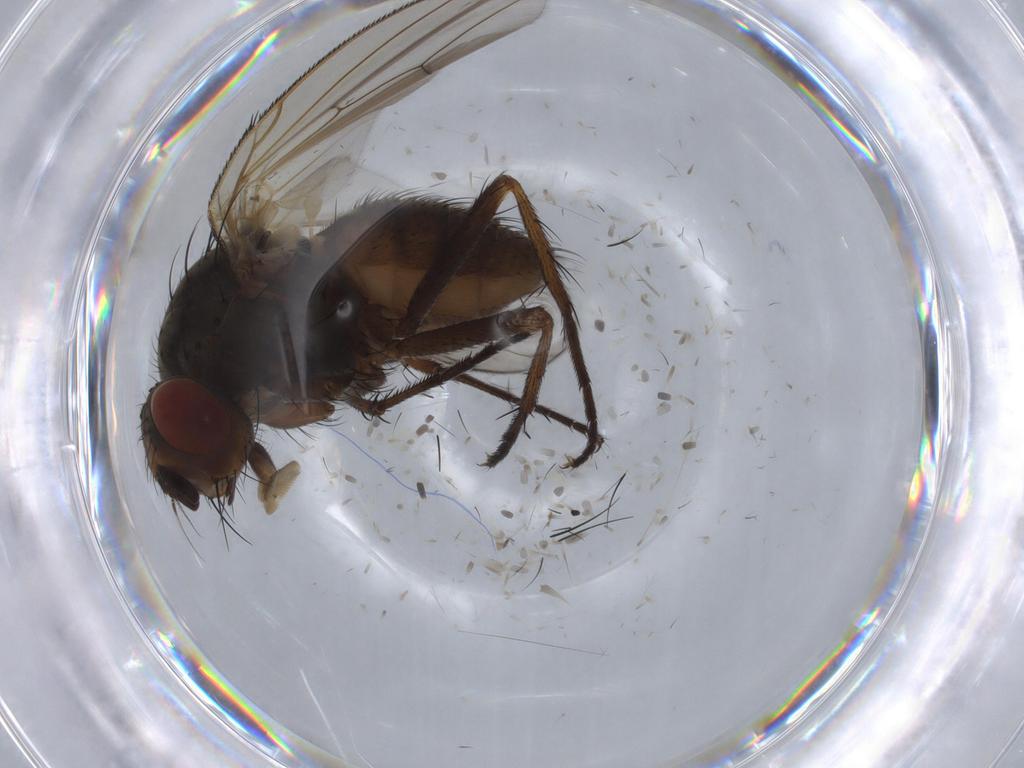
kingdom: Animalia
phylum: Arthropoda
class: Insecta
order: Diptera
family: Anthomyiidae
